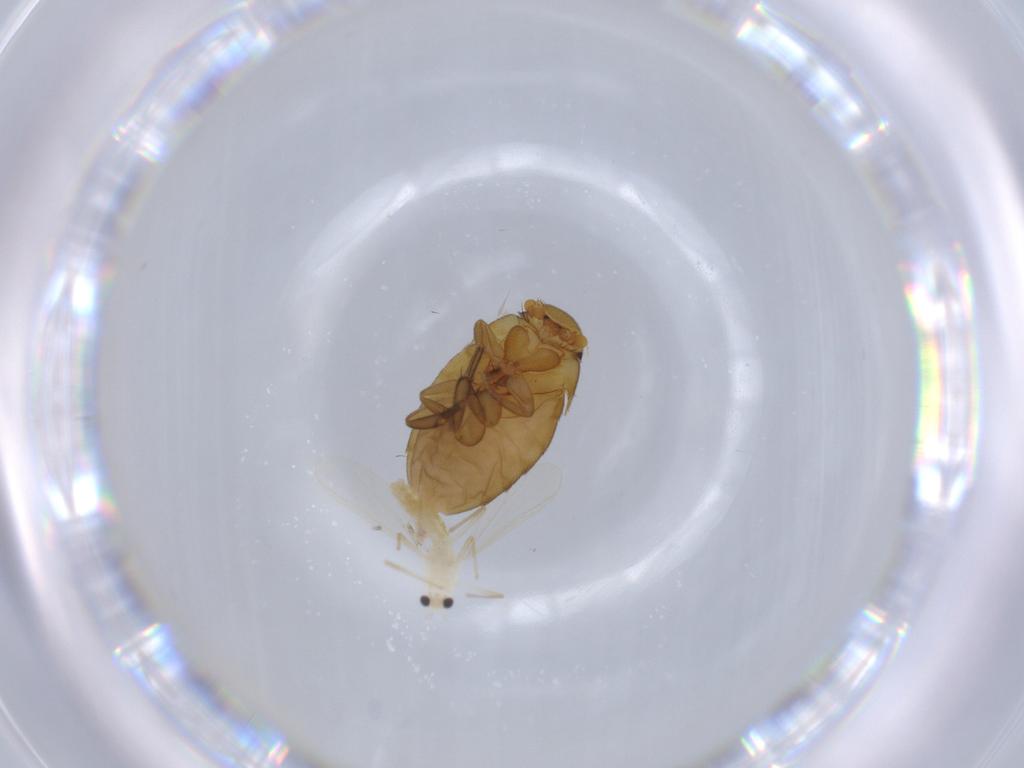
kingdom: Animalia
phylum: Arthropoda
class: Insecta
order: Diptera
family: Chironomidae
